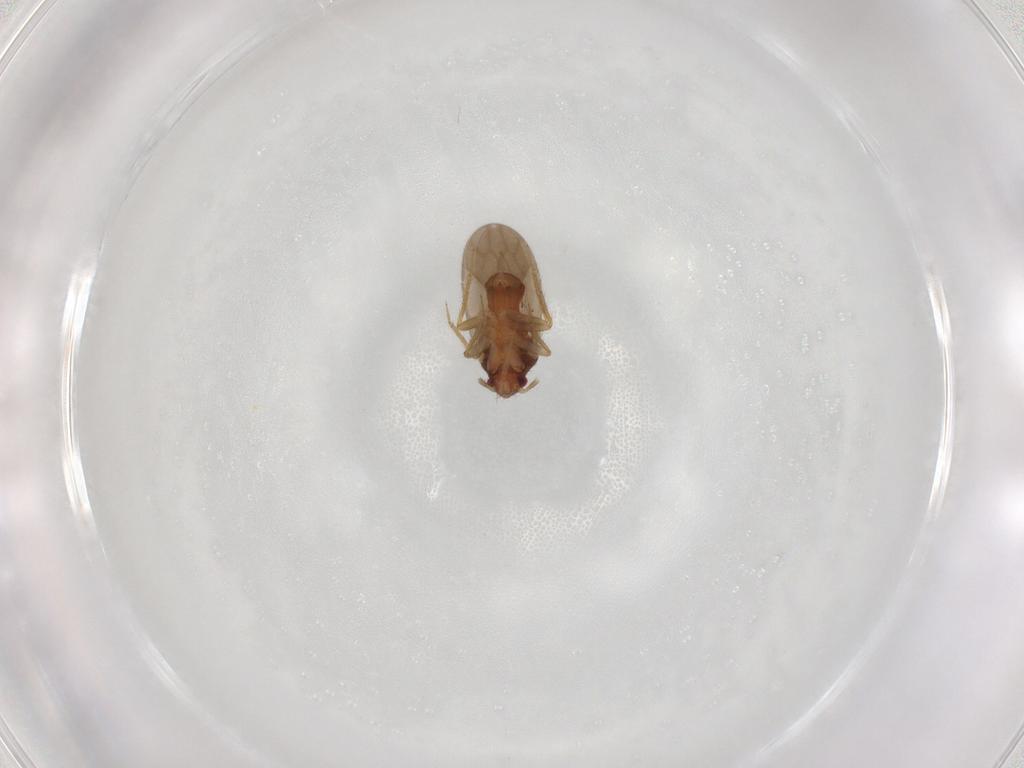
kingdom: Animalia
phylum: Arthropoda
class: Insecta
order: Hemiptera
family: Ceratocombidae
